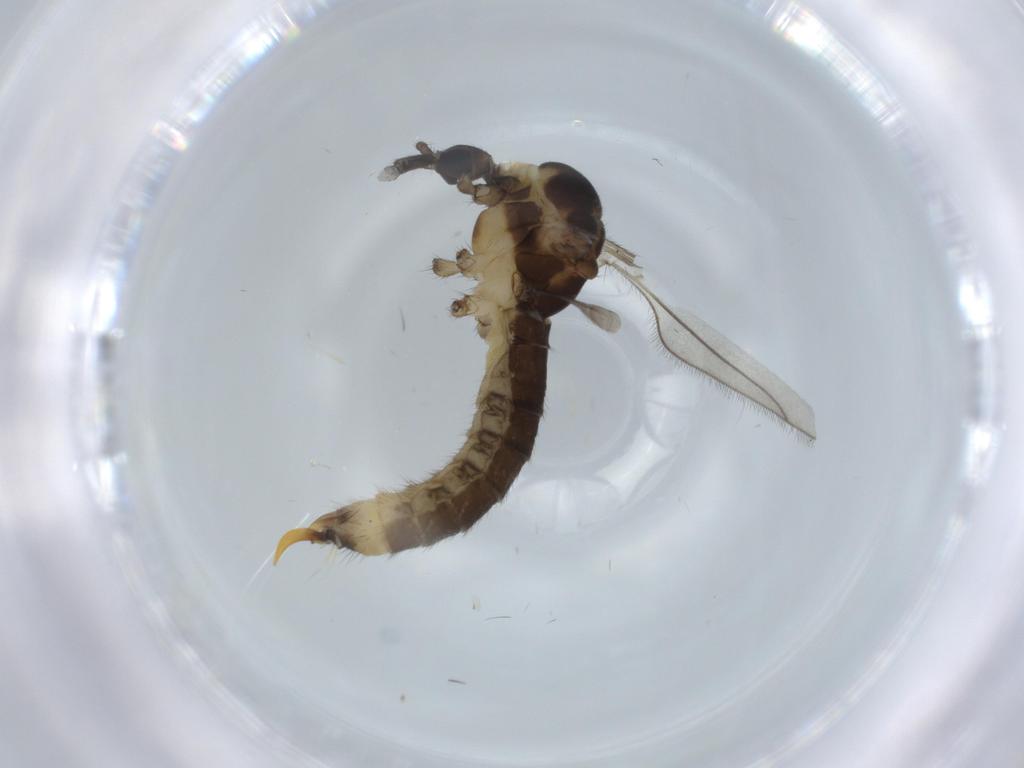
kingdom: Animalia
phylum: Arthropoda
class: Insecta
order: Diptera
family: Limoniidae
